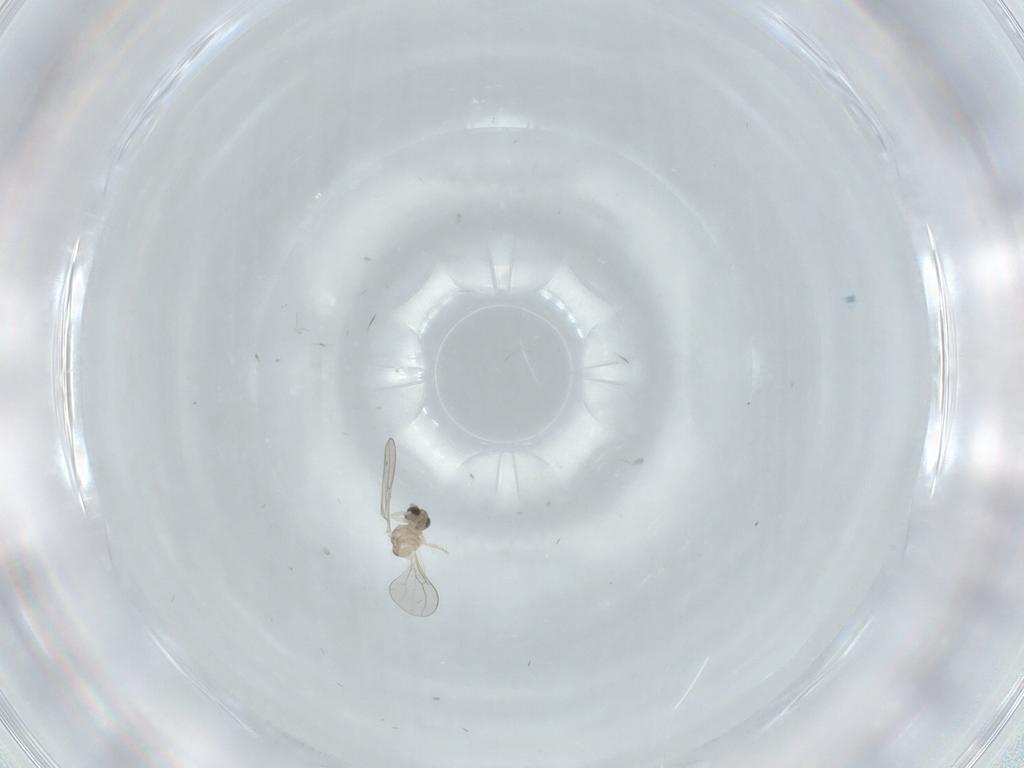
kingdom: Animalia
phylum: Arthropoda
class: Insecta
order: Diptera
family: Cecidomyiidae
